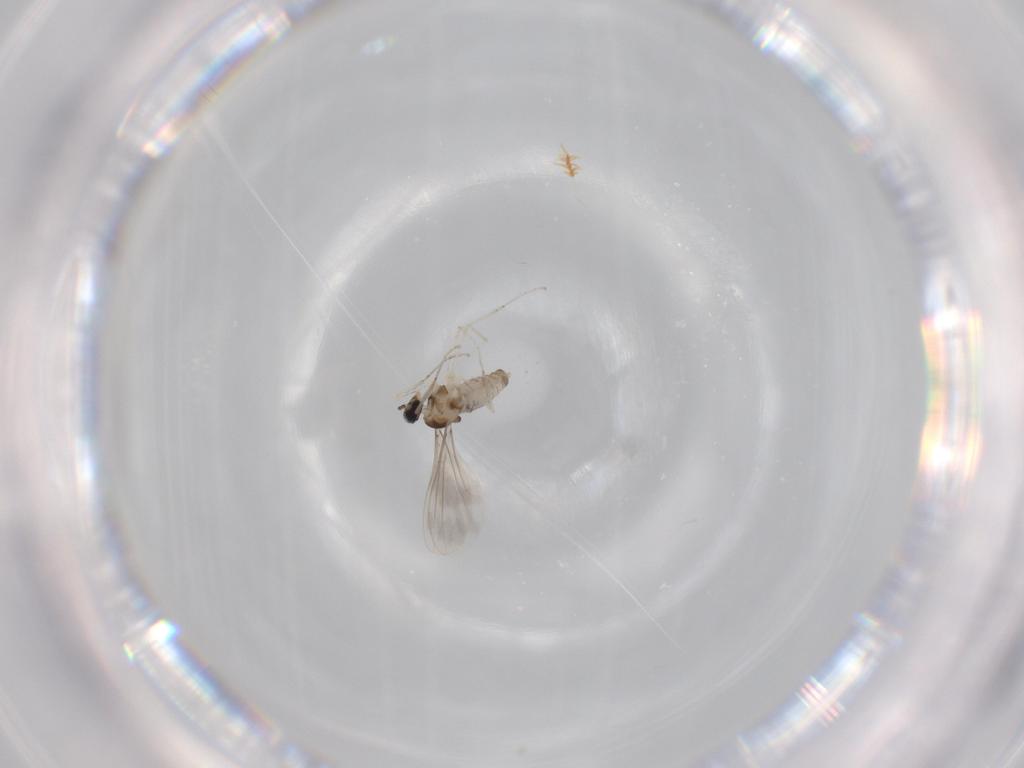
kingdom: Animalia
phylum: Arthropoda
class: Insecta
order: Diptera
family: Cecidomyiidae
